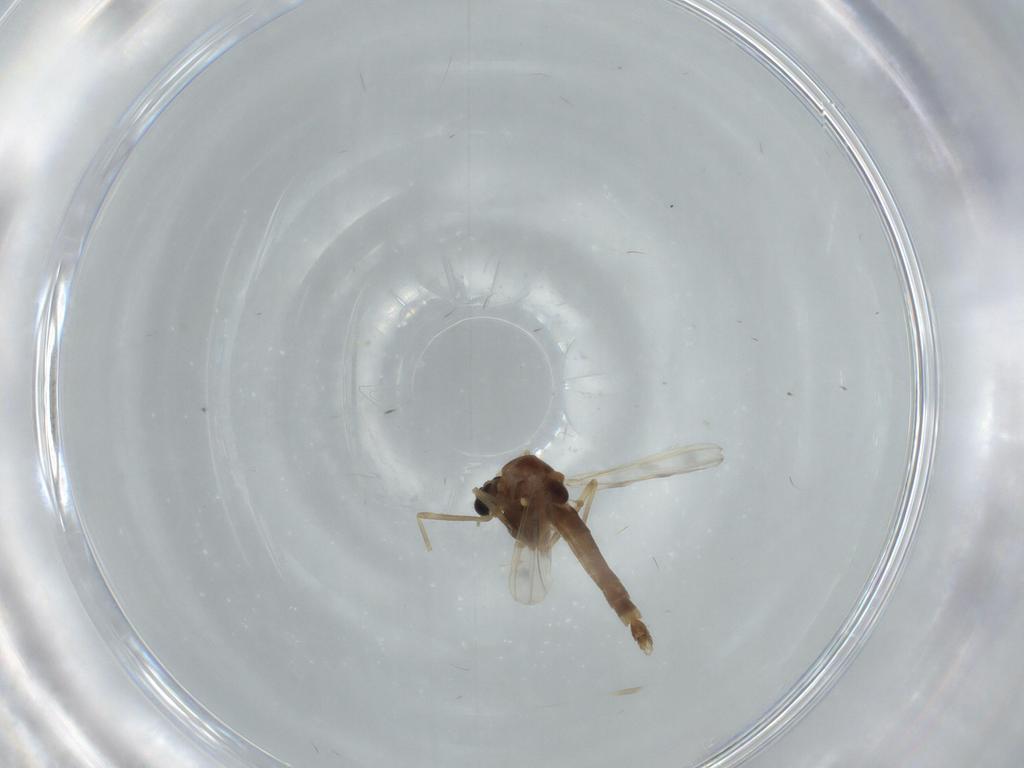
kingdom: Animalia
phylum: Arthropoda
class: Insecta
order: Diptera
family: Chironomidae
